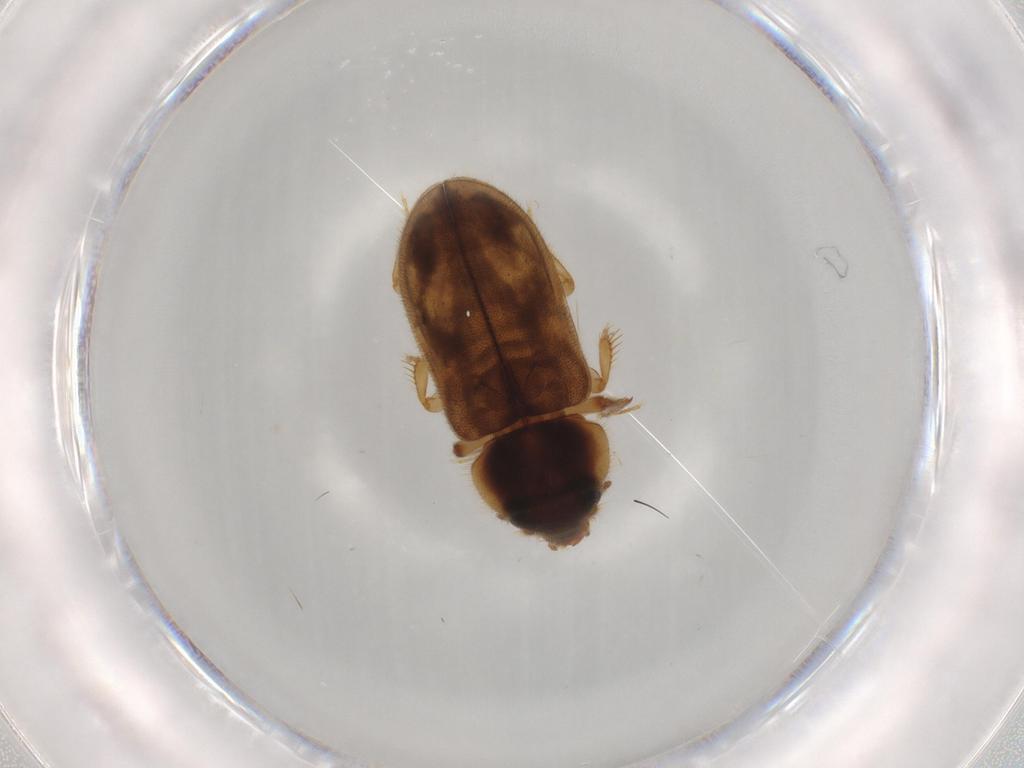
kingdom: Animalia
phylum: Arthropoda
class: Insecta
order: Coleoptera
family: Heteroceridae
